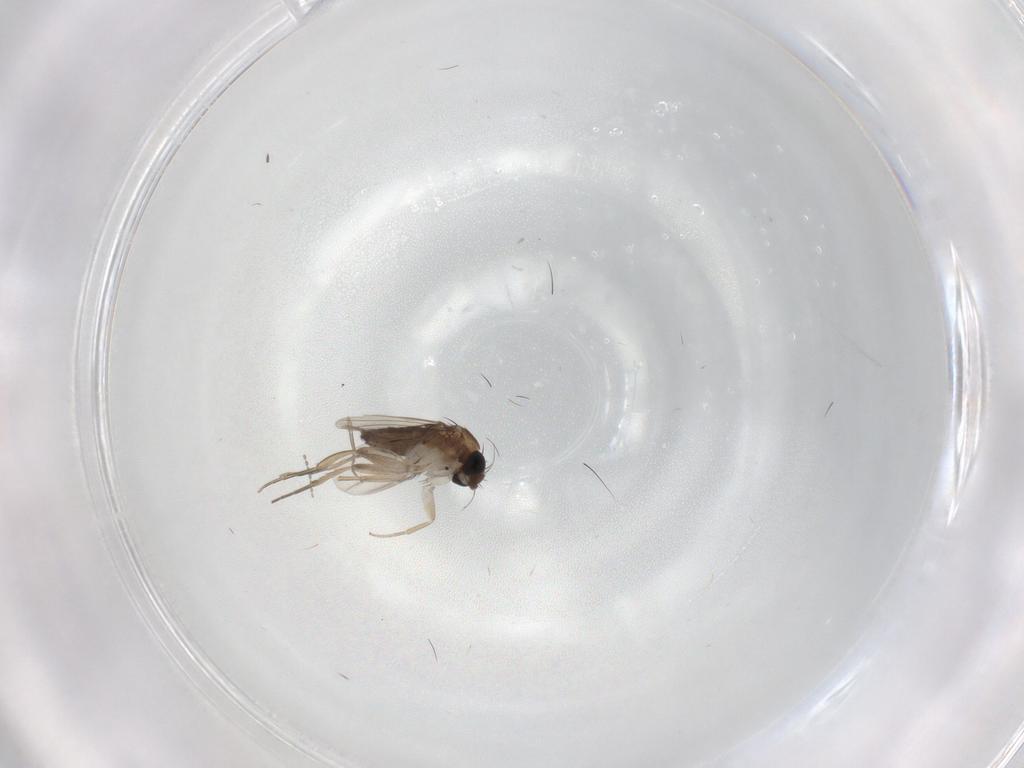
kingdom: Animalia
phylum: Arthropoda
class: Insecta
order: Diptera
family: Phoridae
